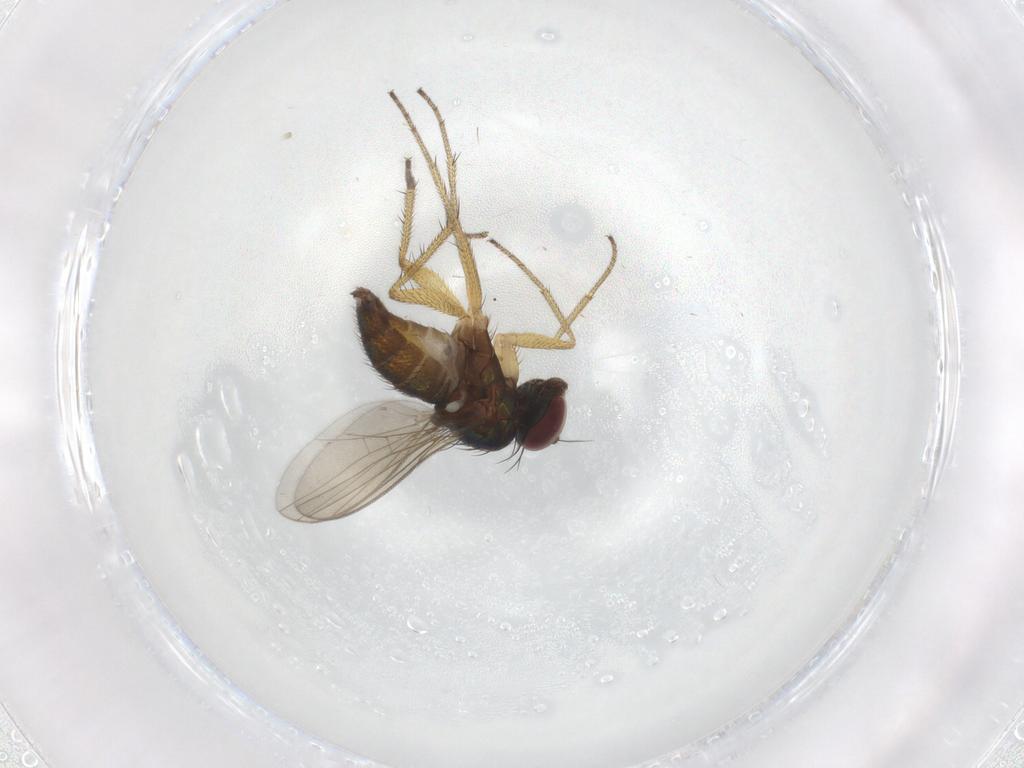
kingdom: Animalia
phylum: Arthropoda
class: Insecta
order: Diptera
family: Dolichopodidae
